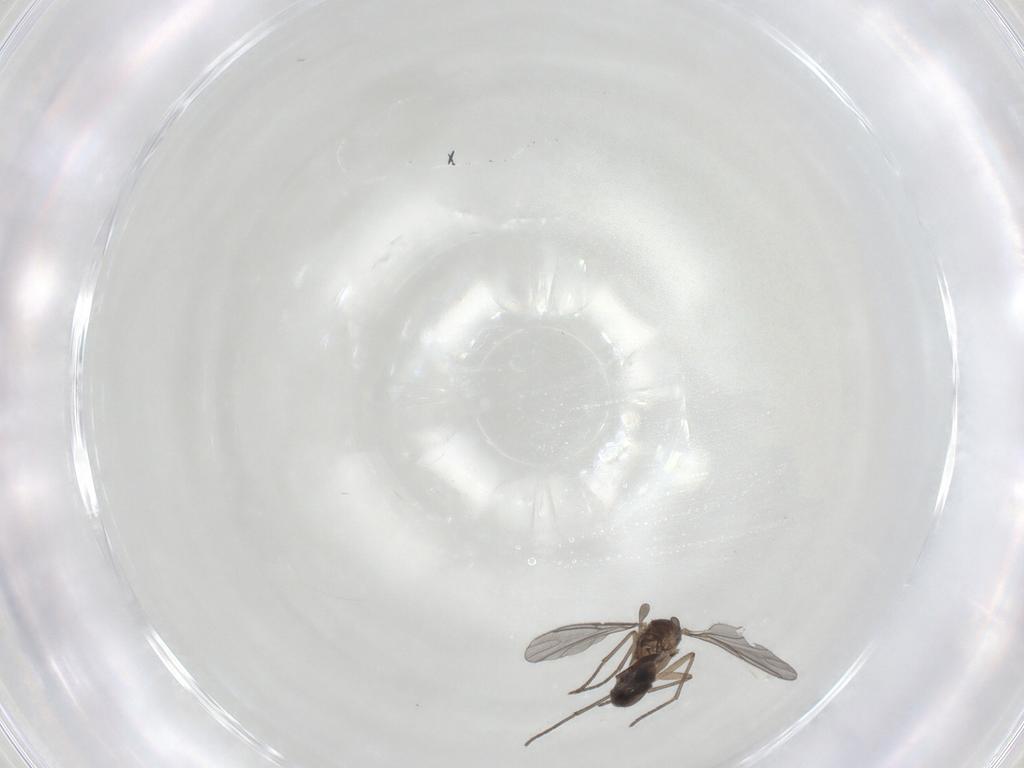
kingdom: Animalia
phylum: Arthropoda
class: Insecta
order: Diptera
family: Sciaridae
